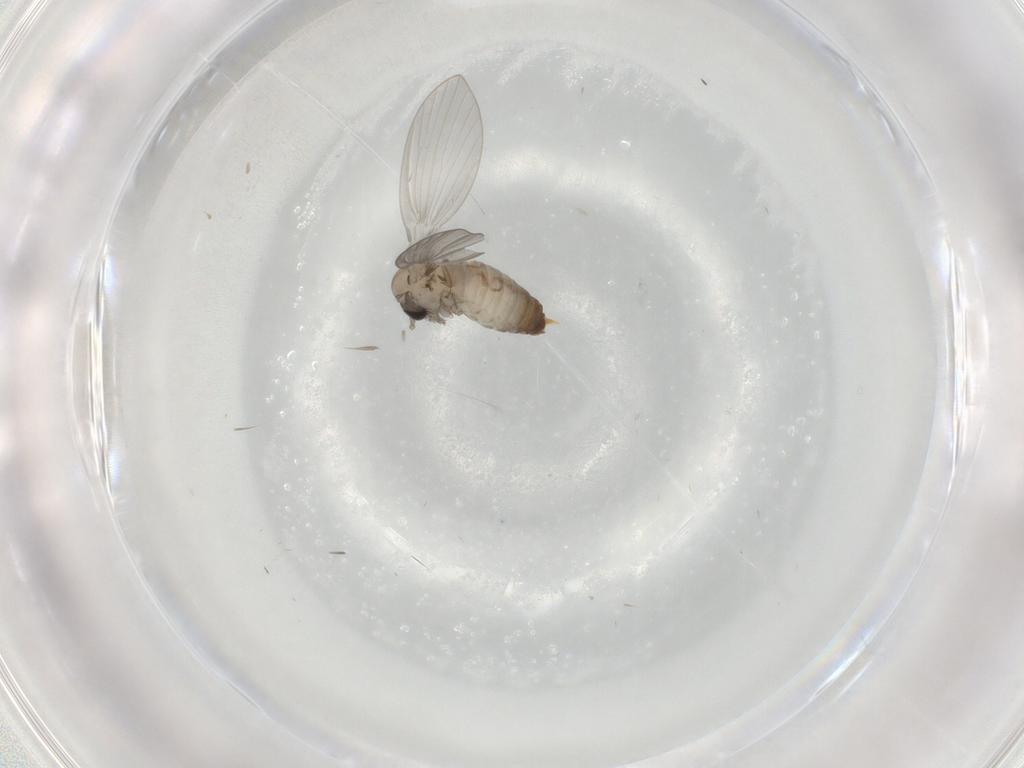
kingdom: Animalia
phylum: Arthropoda
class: Insecta
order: Diptera
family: Psychodidae
